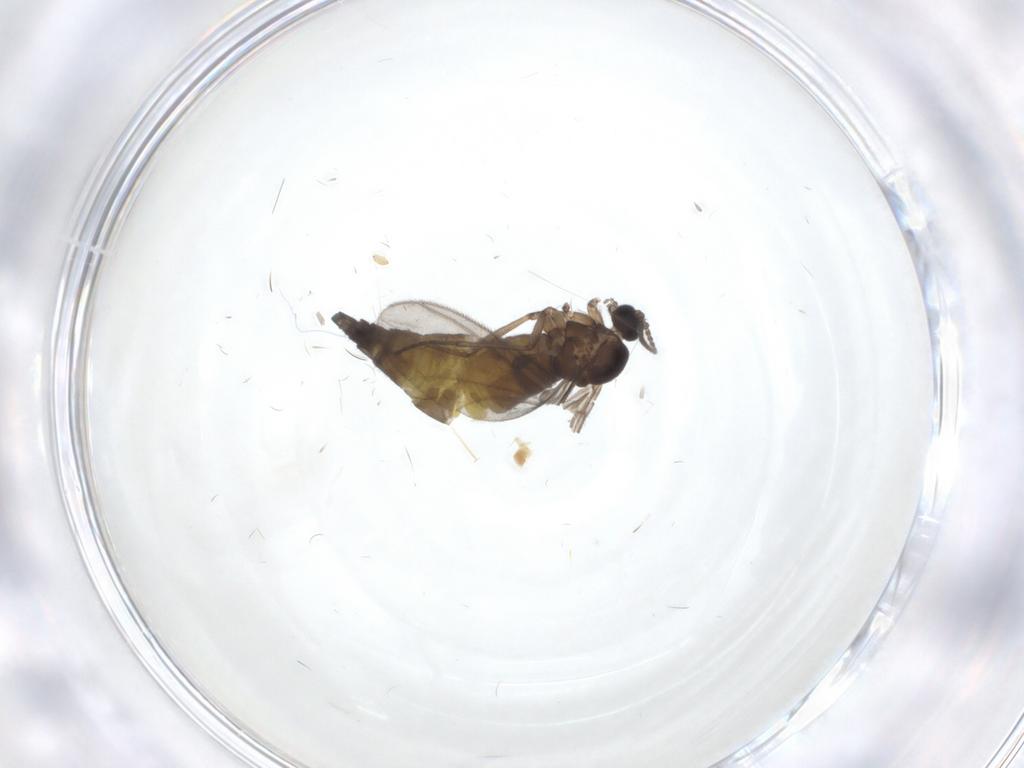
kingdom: Animalia
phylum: Arthropoda
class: Insecta
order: Diptera
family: Sciaridae
